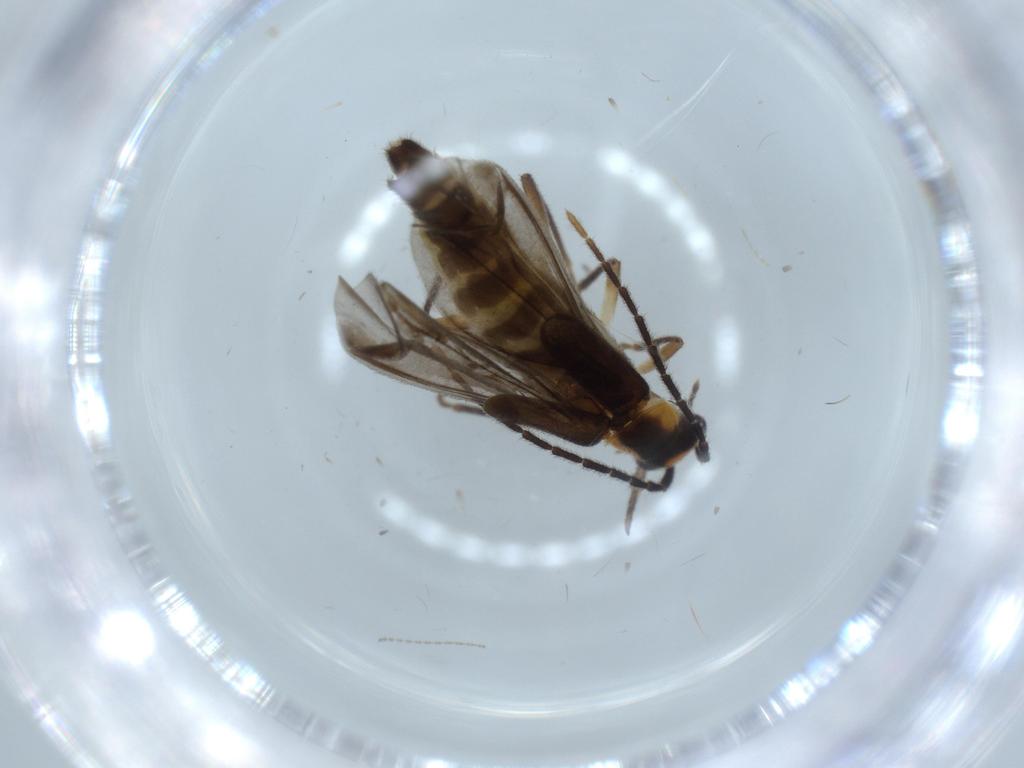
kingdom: Animalia
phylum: Arthropoda
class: Insecta
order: Coleoptera
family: Cantharidae
